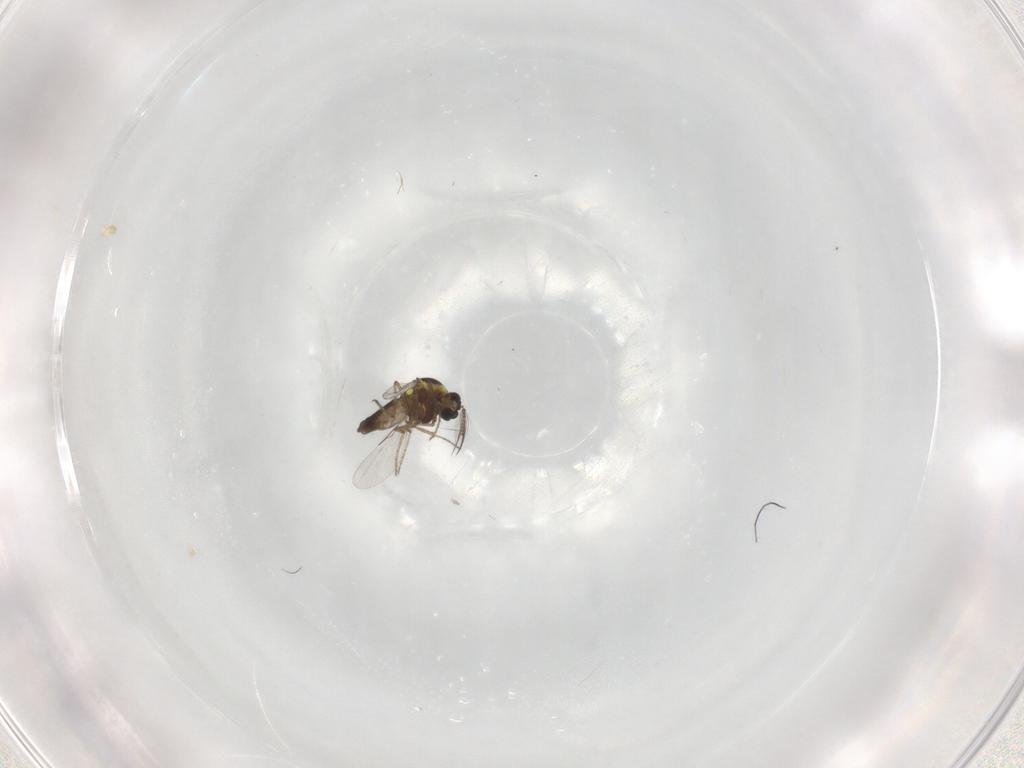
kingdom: Animalia
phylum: Arthropoda
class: Insecta
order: Diptera
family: Ceratopogonidae
